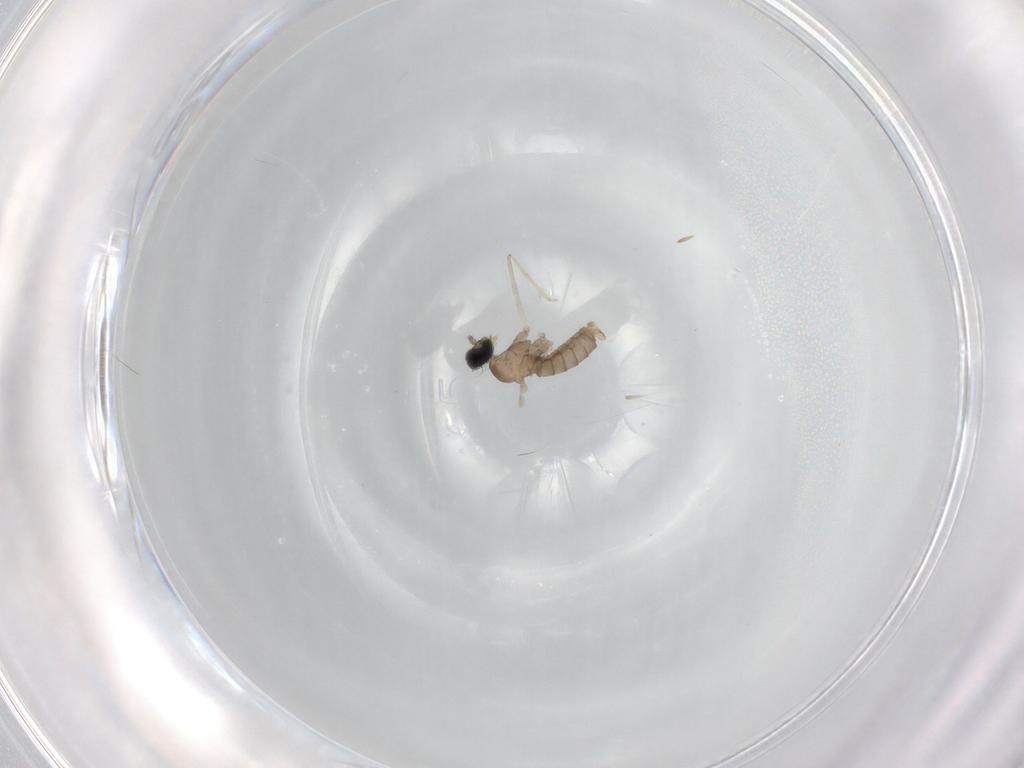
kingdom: Animalia
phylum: Arthropoda
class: Insecta
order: Diptera
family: Cecidomyiidae
